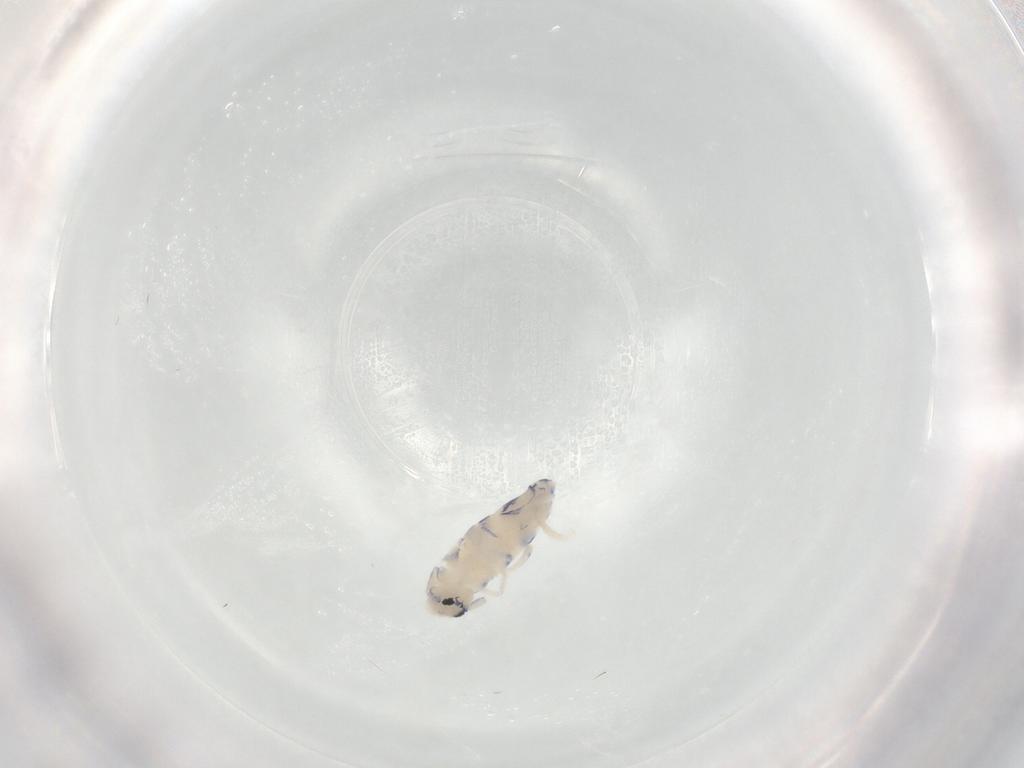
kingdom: Animalia
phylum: Arthropoda
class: Collembola
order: Entomobryomorpha
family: Entomobryidae
